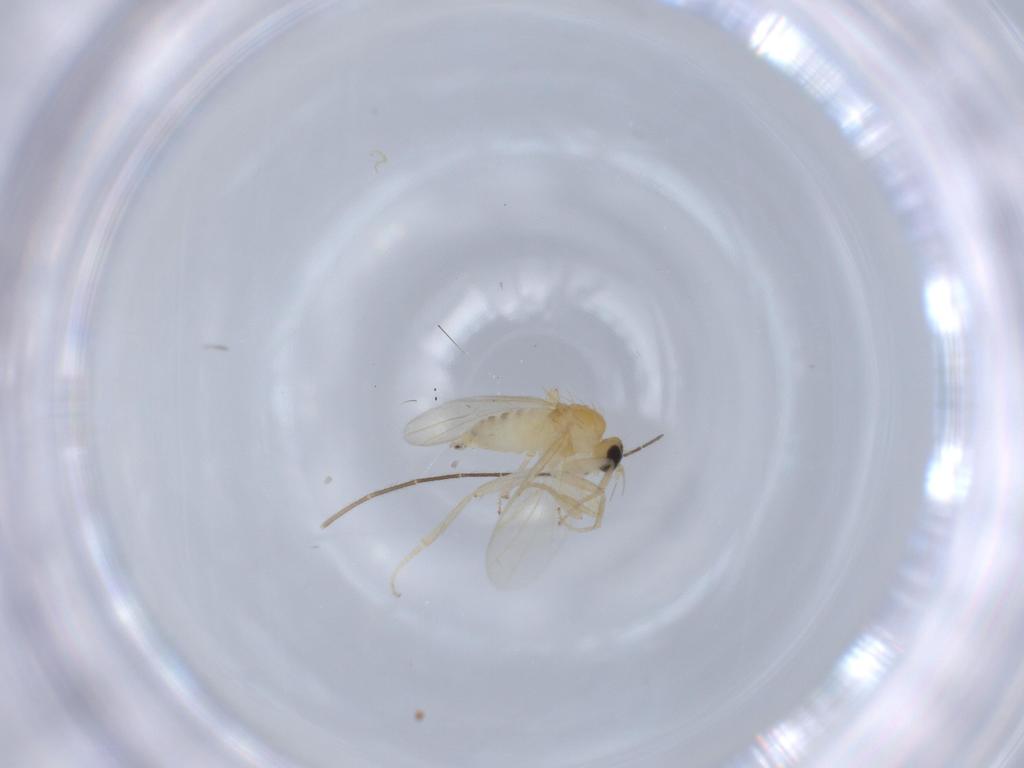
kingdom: Animalia
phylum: Arthropoda
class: Insecta
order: Diptera
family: Hybotidae
